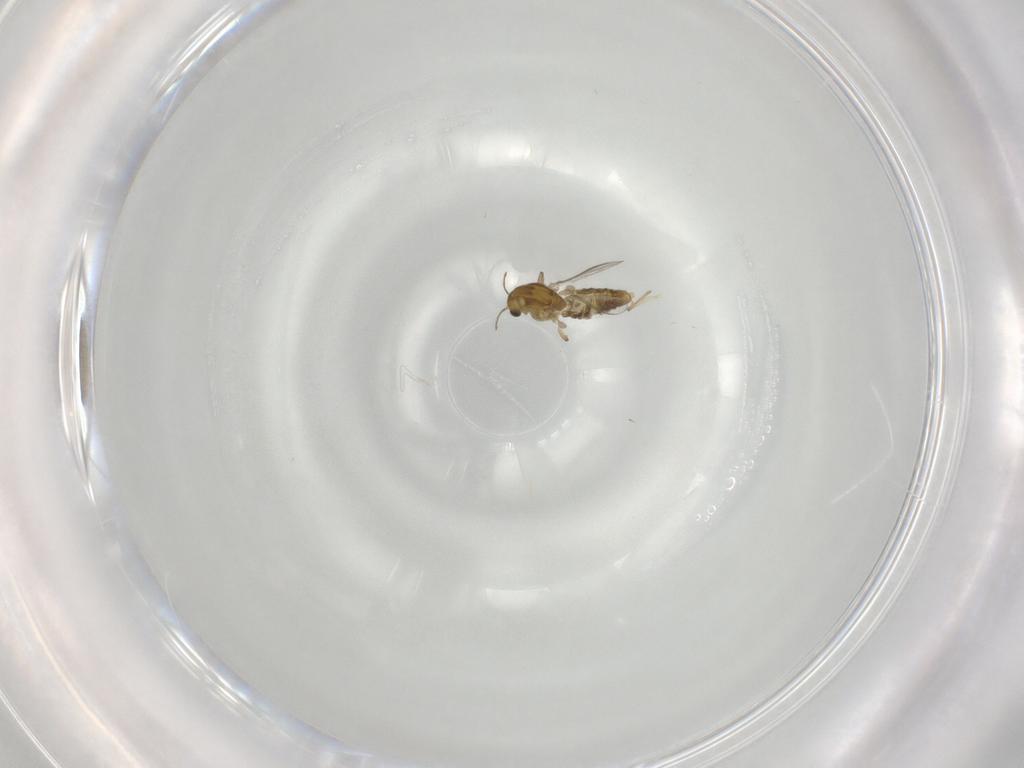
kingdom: Animalia
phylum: Arthropoda
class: Insecta
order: Diptera
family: Chironomidae
